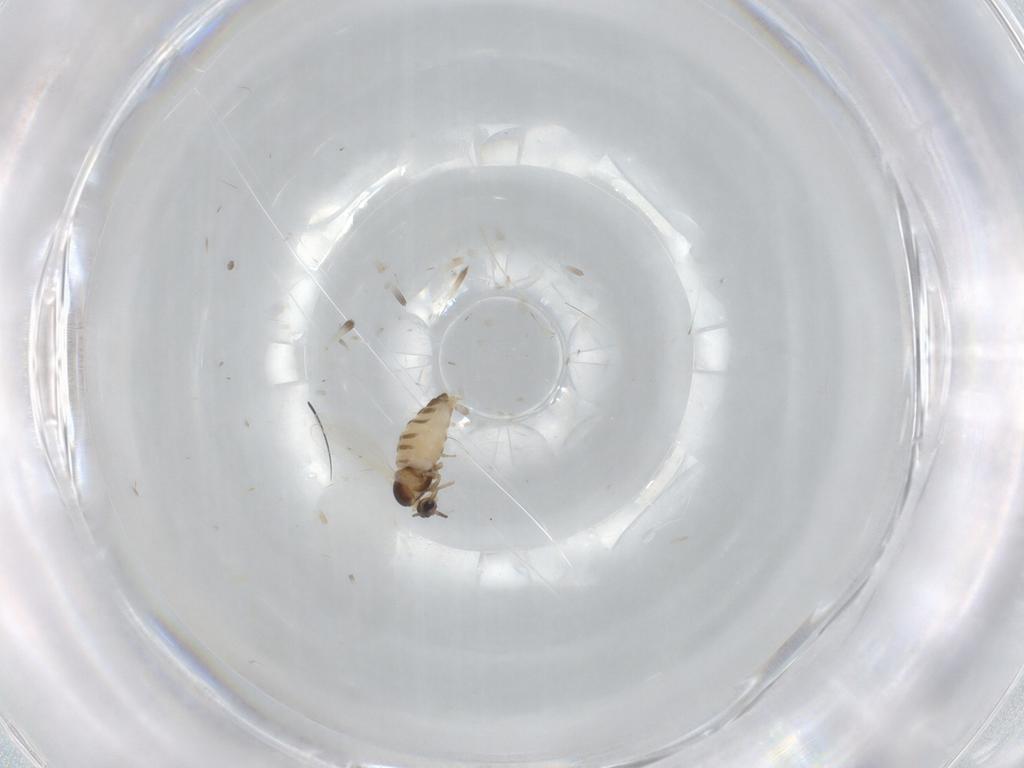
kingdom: Animalia
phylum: Arthropoda
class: Insecta
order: Diptera
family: Cecidomyiidae
